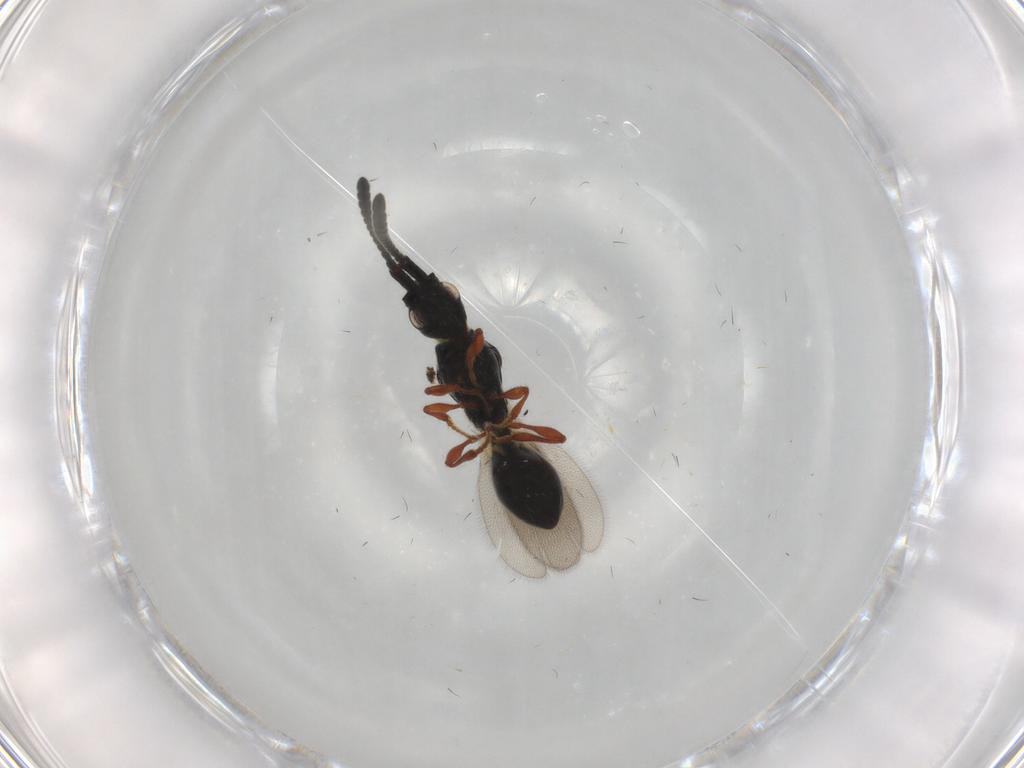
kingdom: Animalia
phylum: Arthropoda
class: Insecta
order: Hymenoptera
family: Diapriidae
